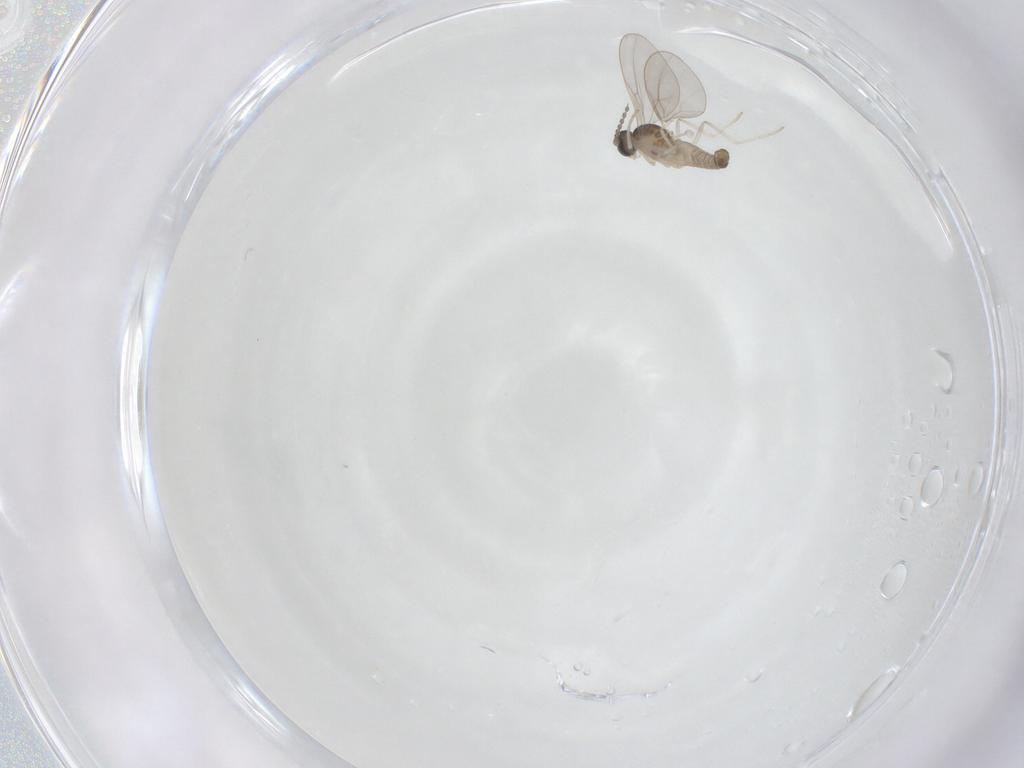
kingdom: Animalia
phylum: Arthropoda
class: Insecta
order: Diptera
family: Cecidomyiidae
